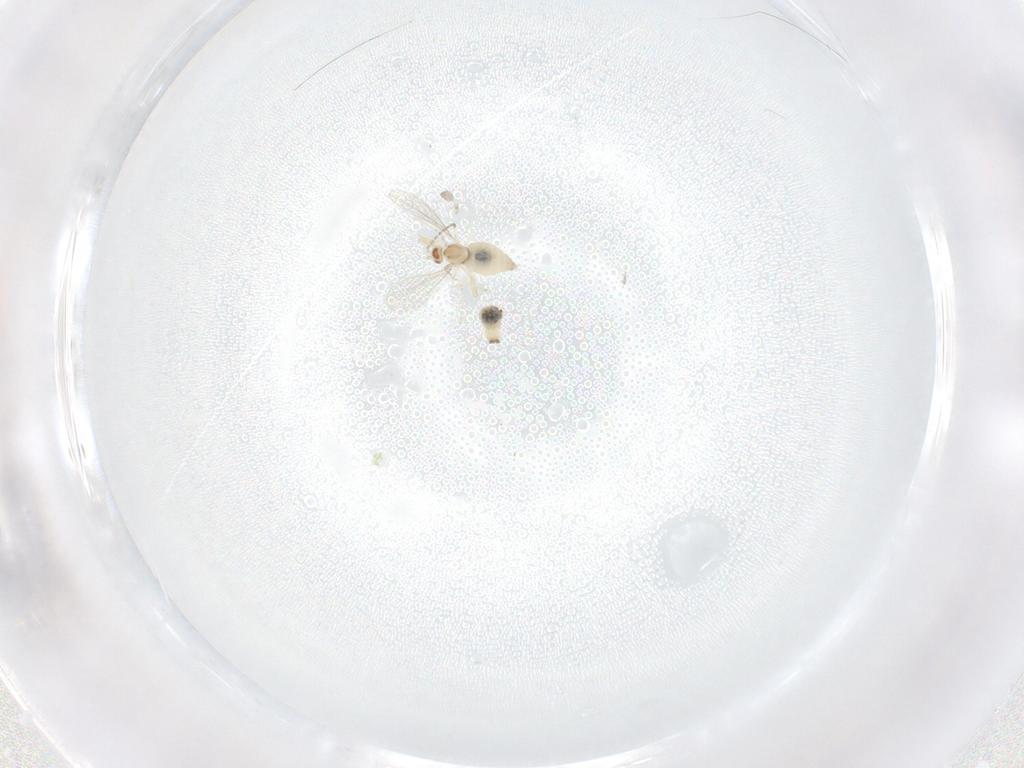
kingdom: Animalia
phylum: Arthropoda
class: Insecta
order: Diptera
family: Cecidomyiidae
